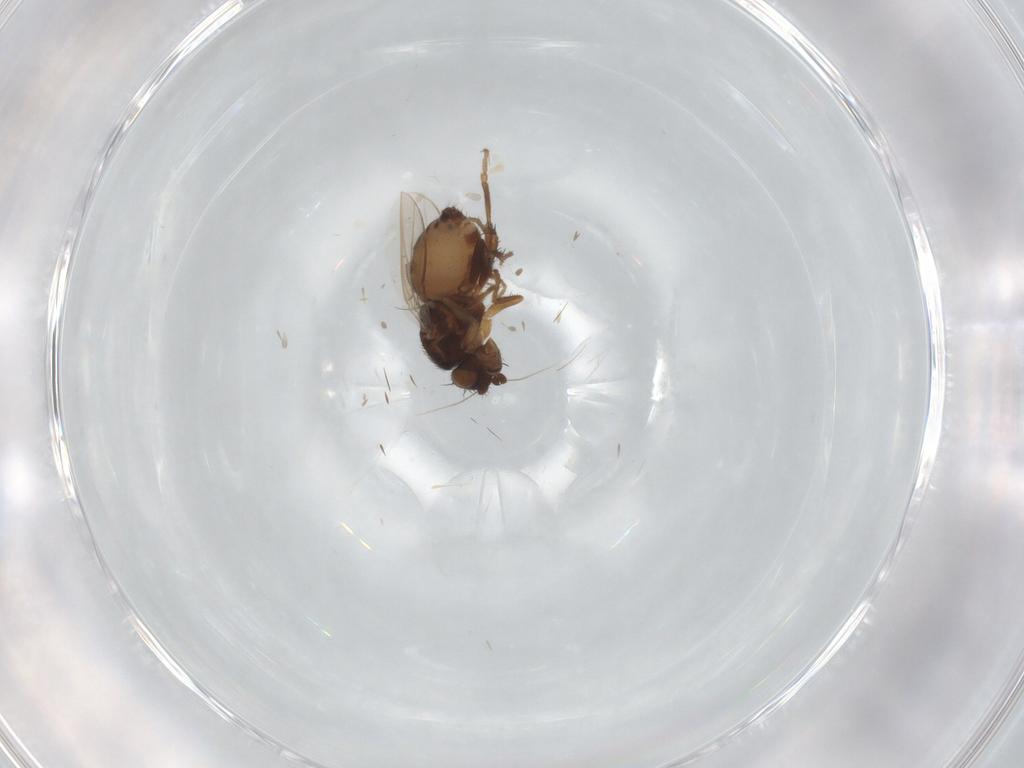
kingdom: Animalia
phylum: Arthropoda
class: Insecta
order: Diptera
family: Sphaeroceridae
